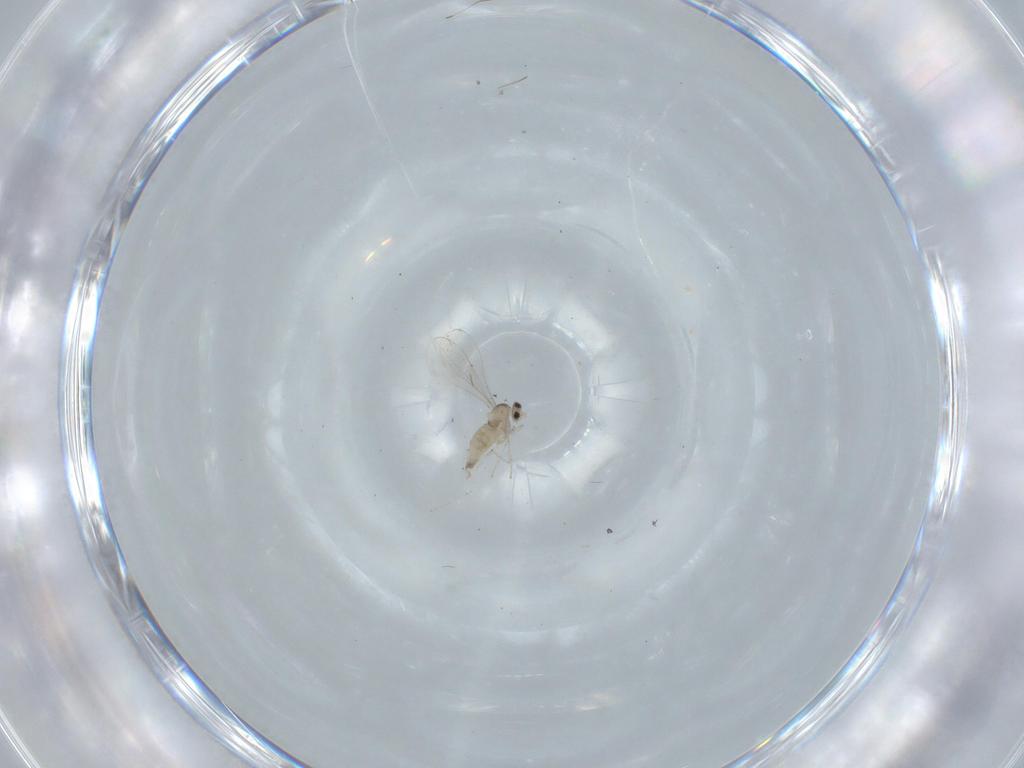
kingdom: Animalia
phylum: Arthropoda
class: Insecta
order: Diptera
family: Cecidomyiidae
